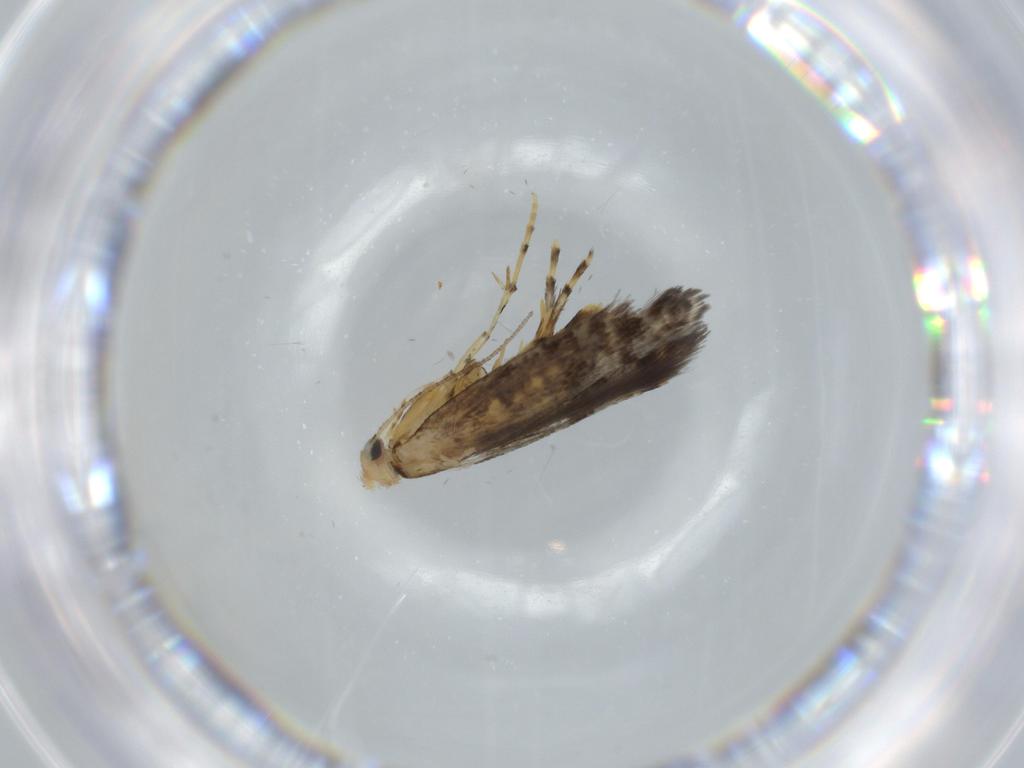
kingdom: Animalia
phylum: Arthropoda
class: Insecta
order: Lepidoptera
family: Argyresthiidae
